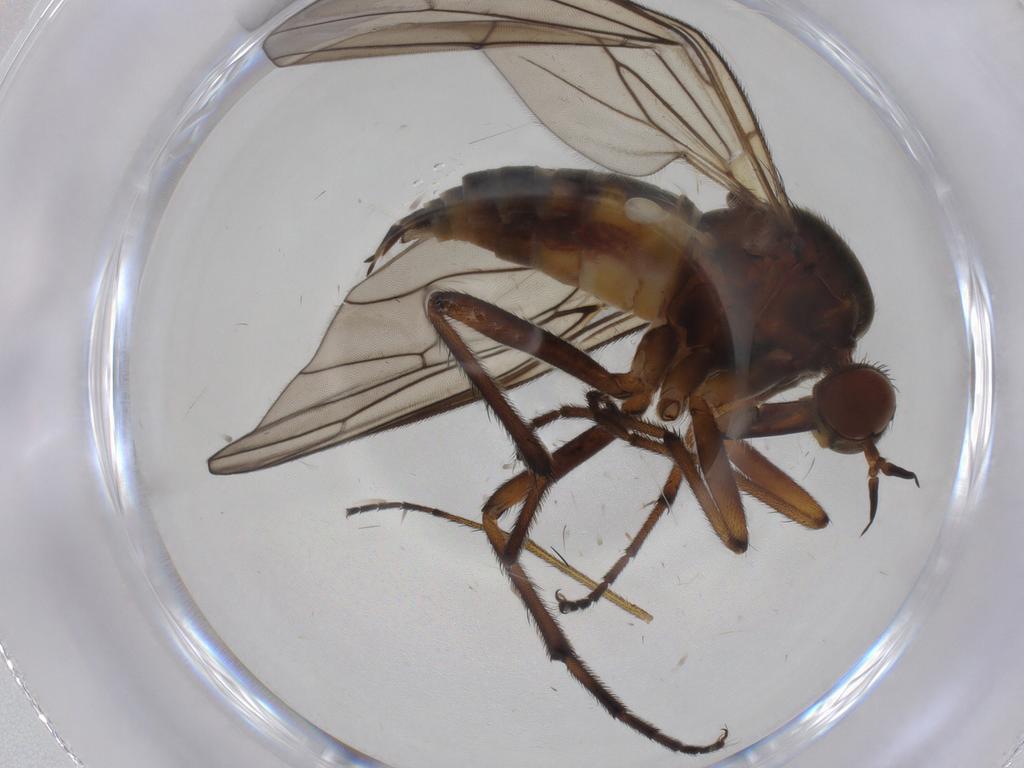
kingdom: Animalia
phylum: Arthropoda
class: Insecta
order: Diptera
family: Empididae
